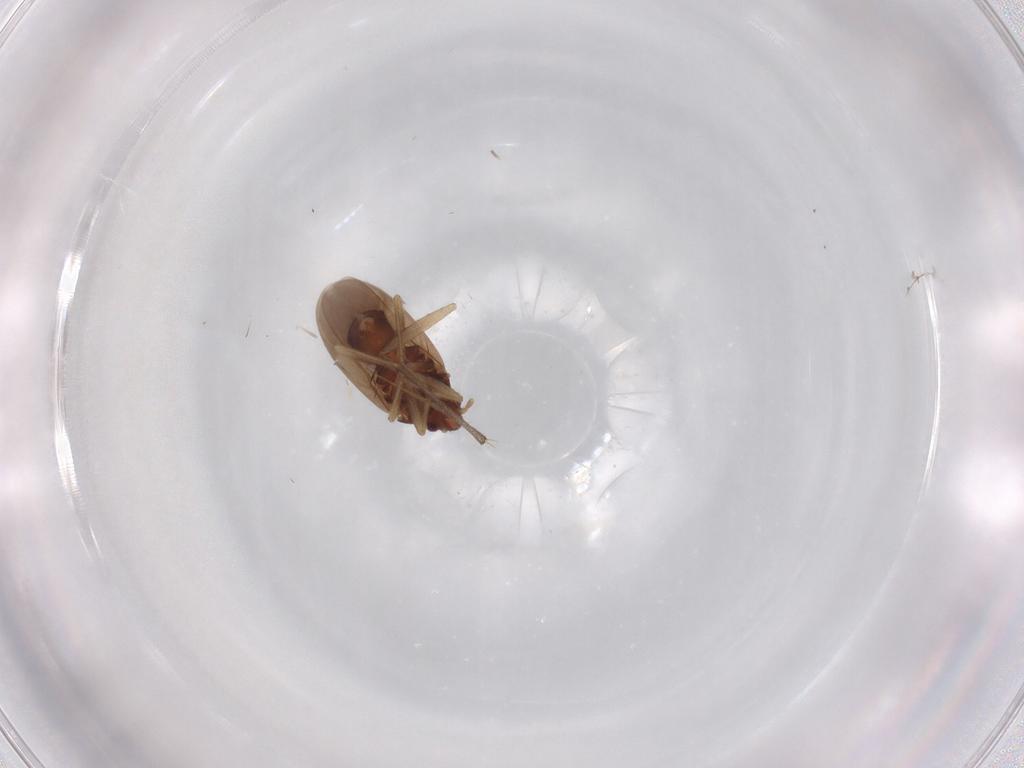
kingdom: Animalia
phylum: Arthropoda
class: Insecta
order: Hemiptera
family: Ceratocombidae
